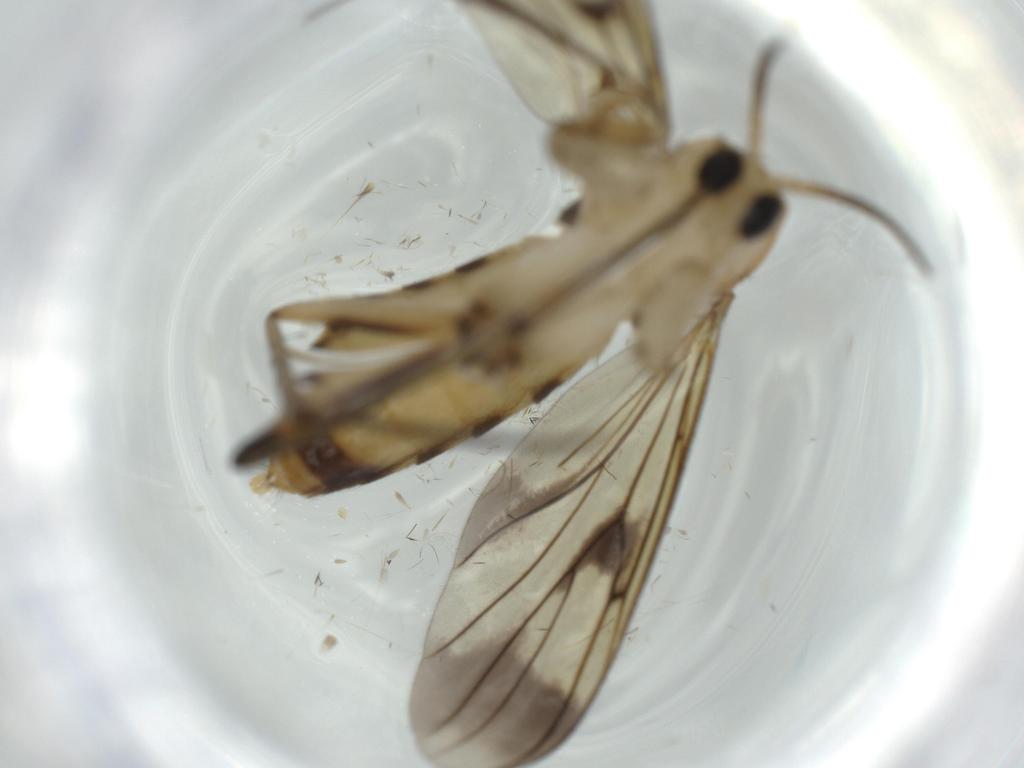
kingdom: Animalia
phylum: Arthropoda
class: Insecta
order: Diptera
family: Mycetophilidae
